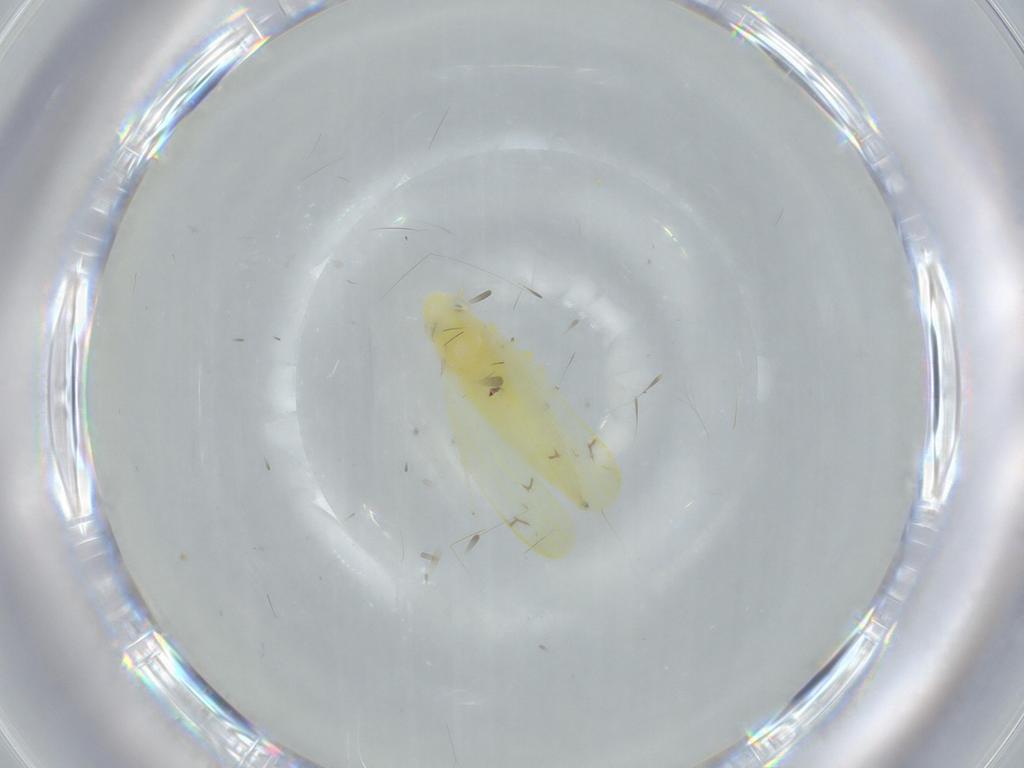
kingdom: Animalia
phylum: Arthropoda
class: Insecta
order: Hemiptera
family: Cicadellidae
